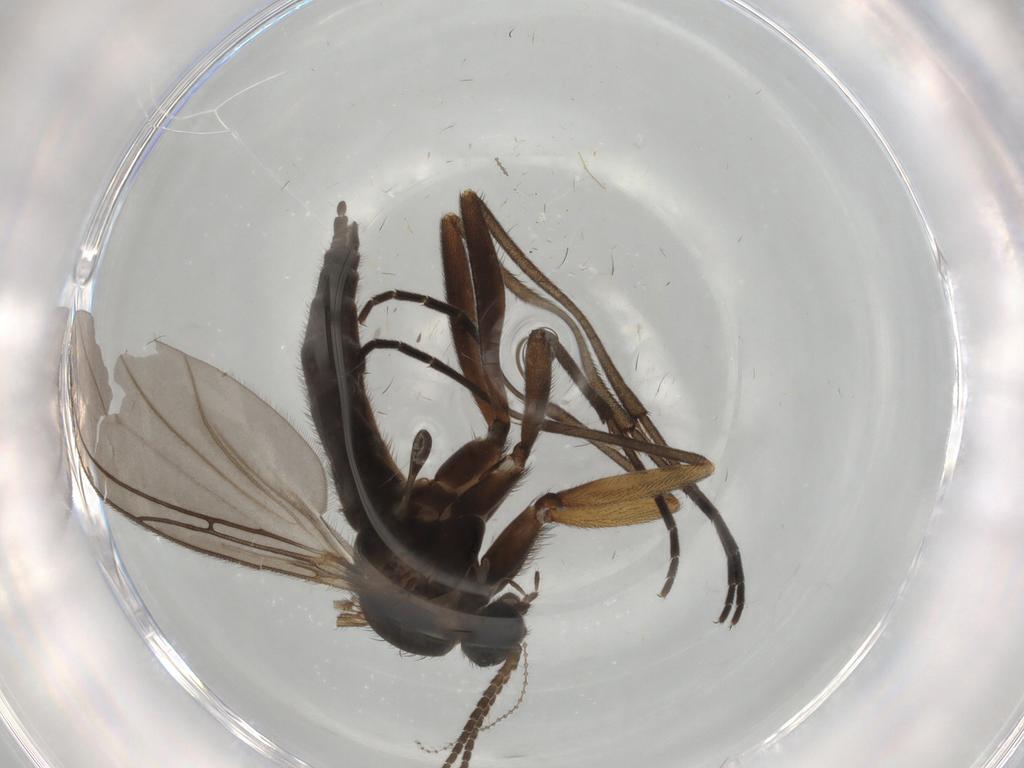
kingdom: Animalia
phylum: Arthropoda
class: Insecta
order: Diptera
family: Cecidomyiidae
